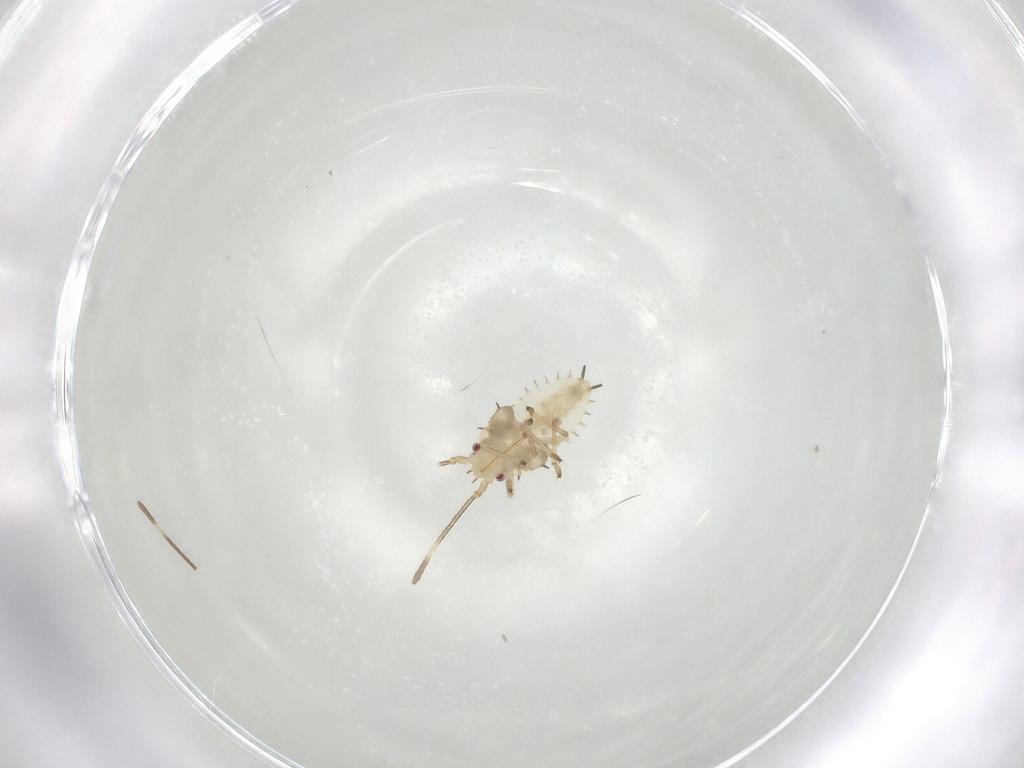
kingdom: Animalia
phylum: Arthropoda
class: Insecta
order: Hemiptera
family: Tingidae
